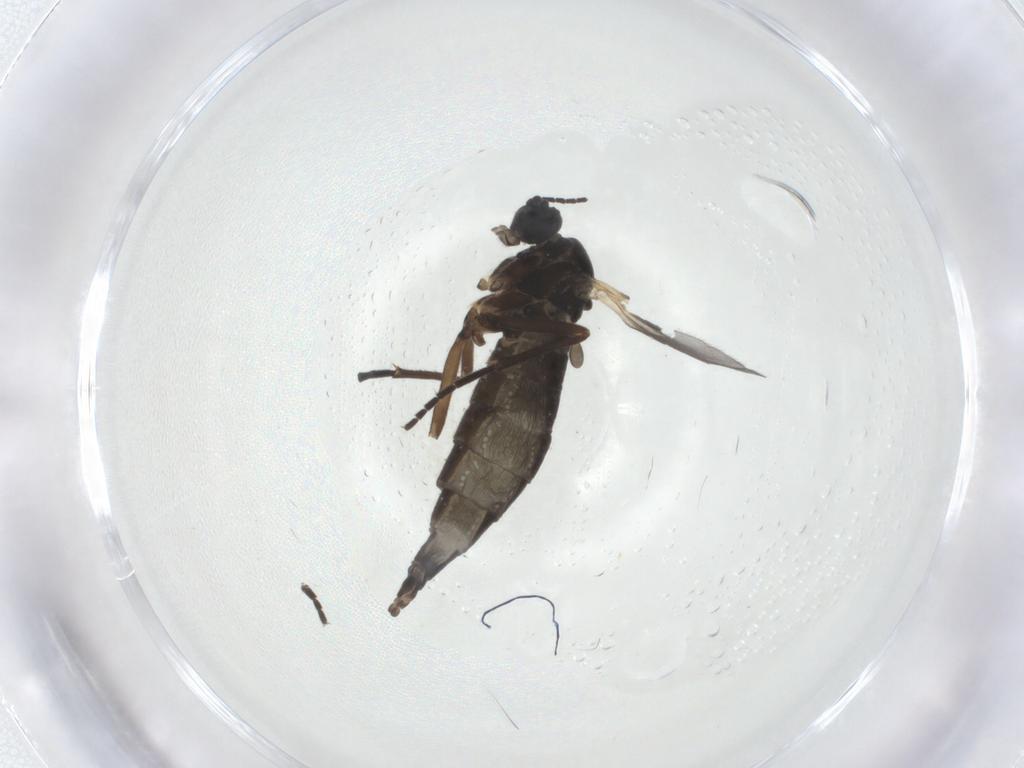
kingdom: Animalia
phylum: Arthropoda
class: Insecta
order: Diptera
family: Sciaridae
